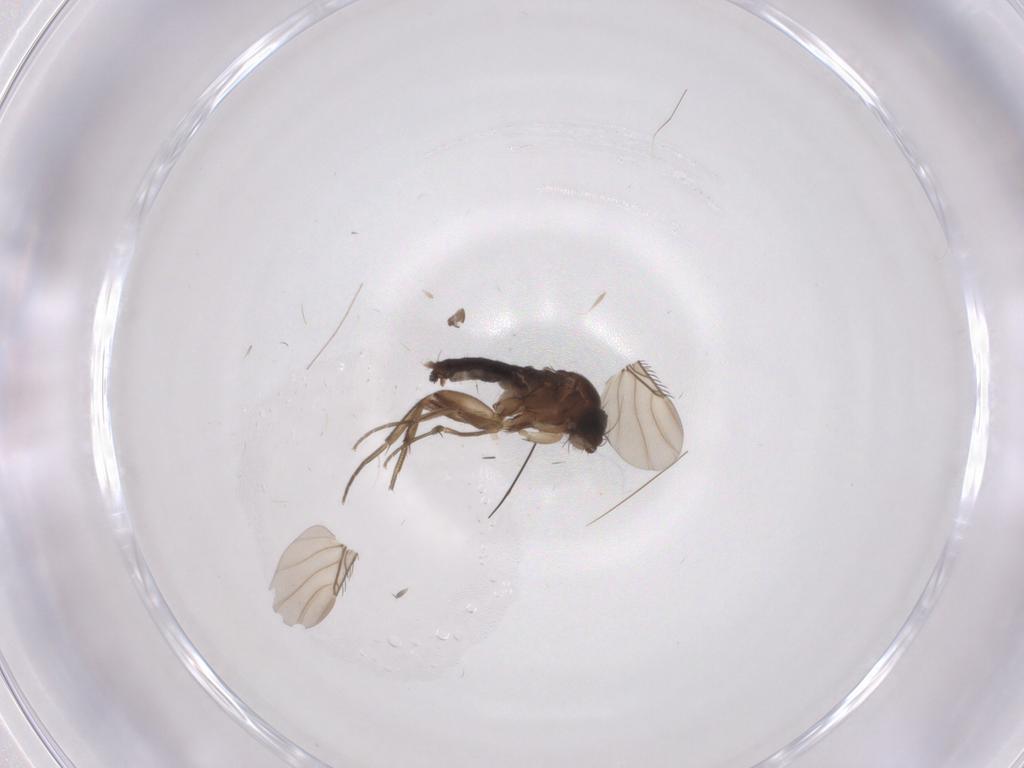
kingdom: Animalia
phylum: Arthropoda
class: Insecta
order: Diptera
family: Phoridae
